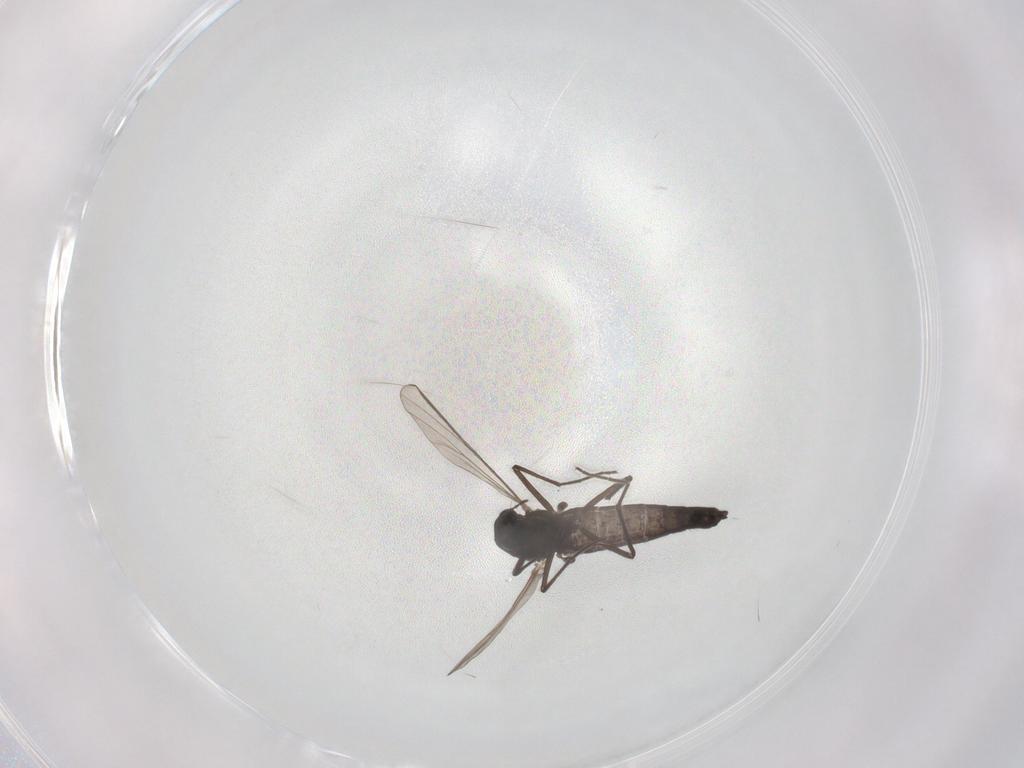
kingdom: Animalia
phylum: Arthropoda
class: Insecta
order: Diptera
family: Chironomidae
